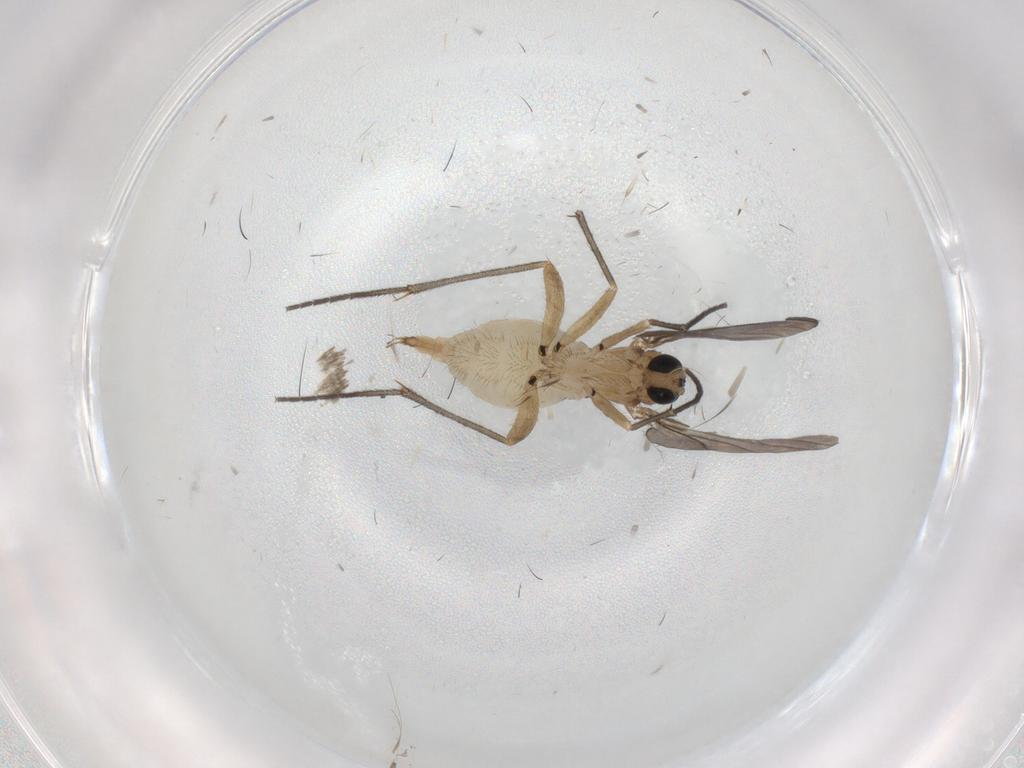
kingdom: Animalia
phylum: Arthropoda
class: Insecta
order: Diptera
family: Sciaridae
